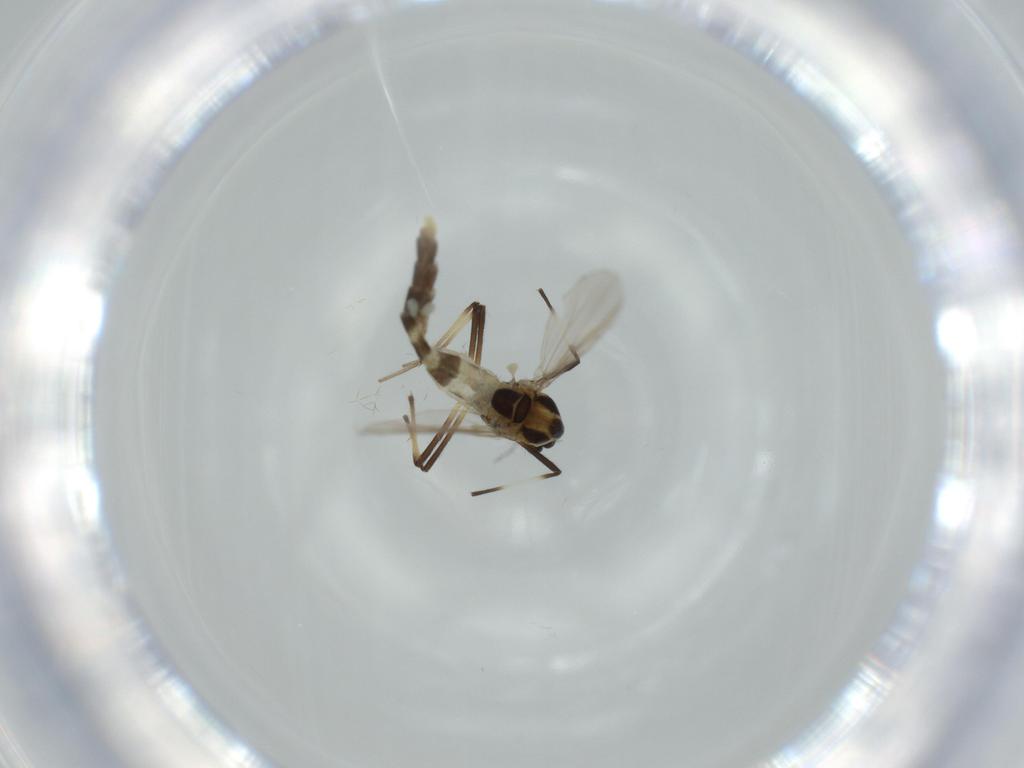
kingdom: Animalia
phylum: Arthropoda
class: Insecta
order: Diptera
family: Chironomidae
